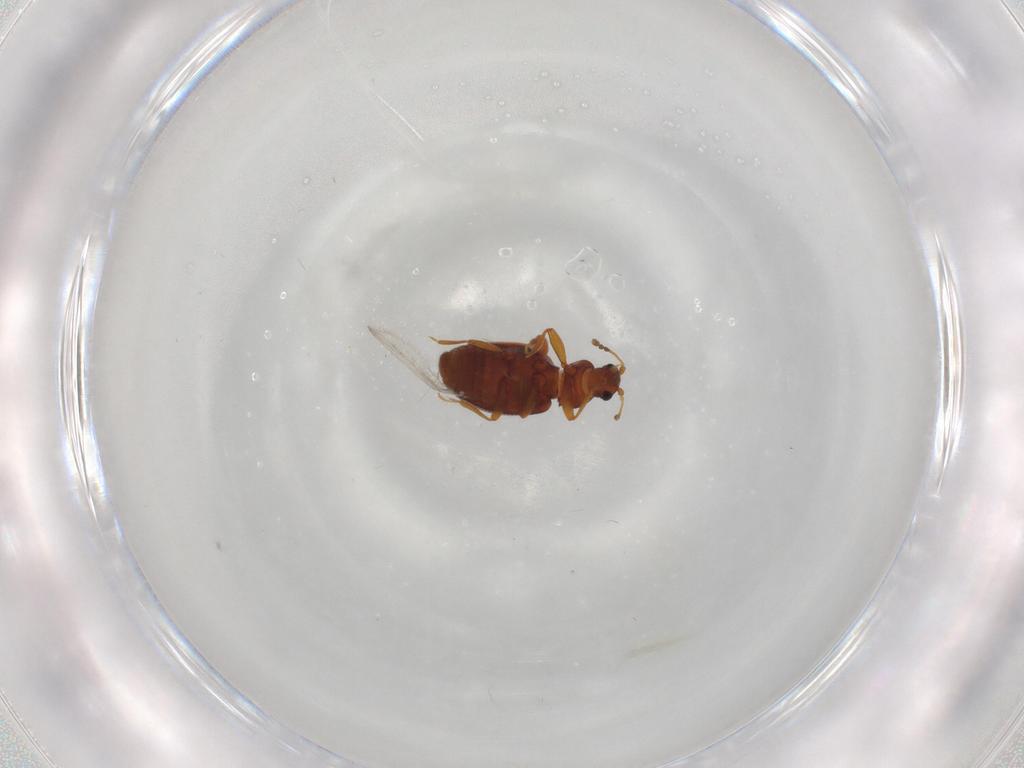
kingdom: Animalia
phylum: Arthropoda
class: Insecta
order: Coleoptera
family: Latridiidae
